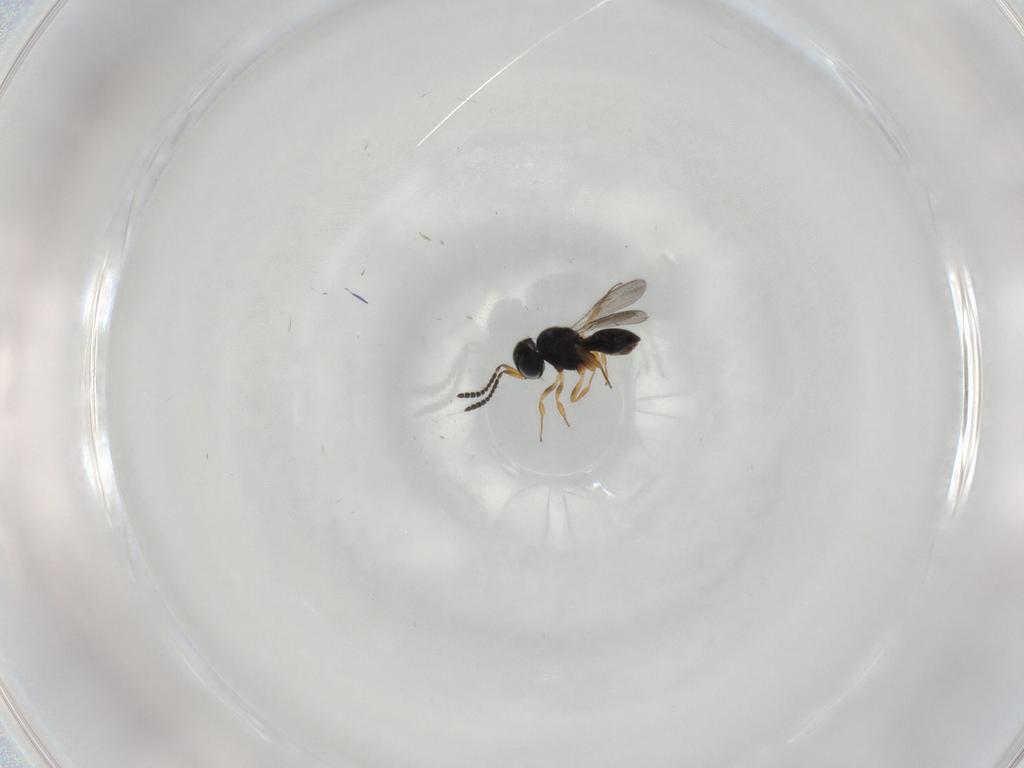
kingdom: Animalia
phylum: Arthropoda
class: Insecta
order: Hymenoptera
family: Scelionidae
